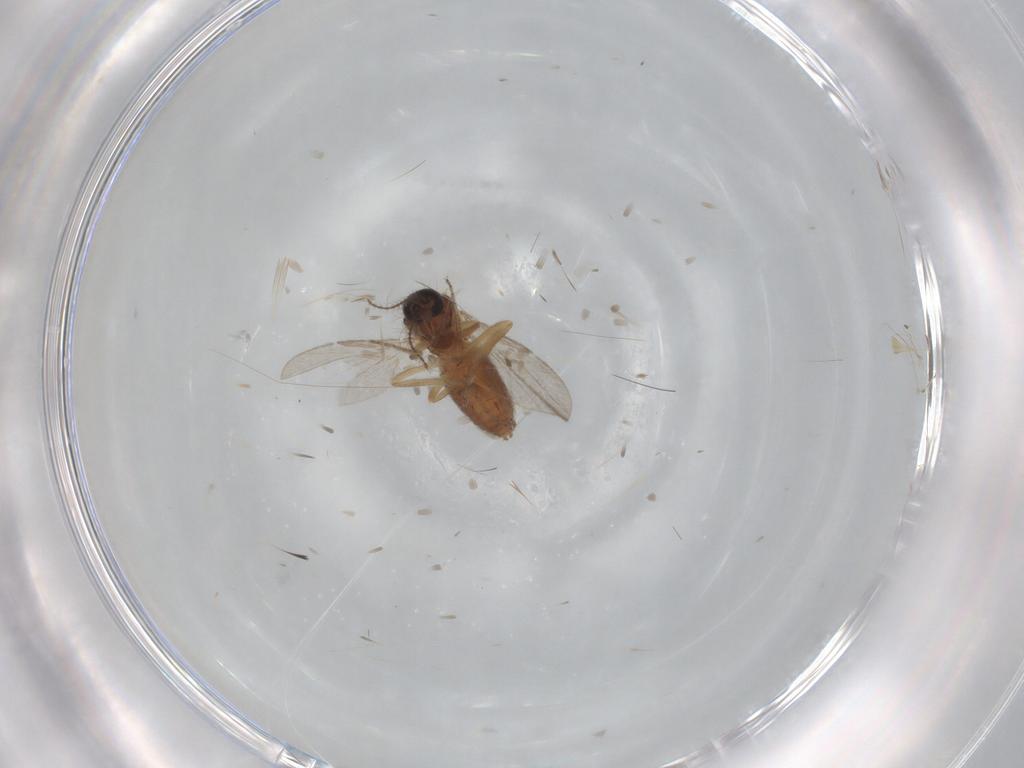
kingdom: Animalia
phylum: Arthropoda
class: Insecta
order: Diptera
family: Ceratopogonidae
